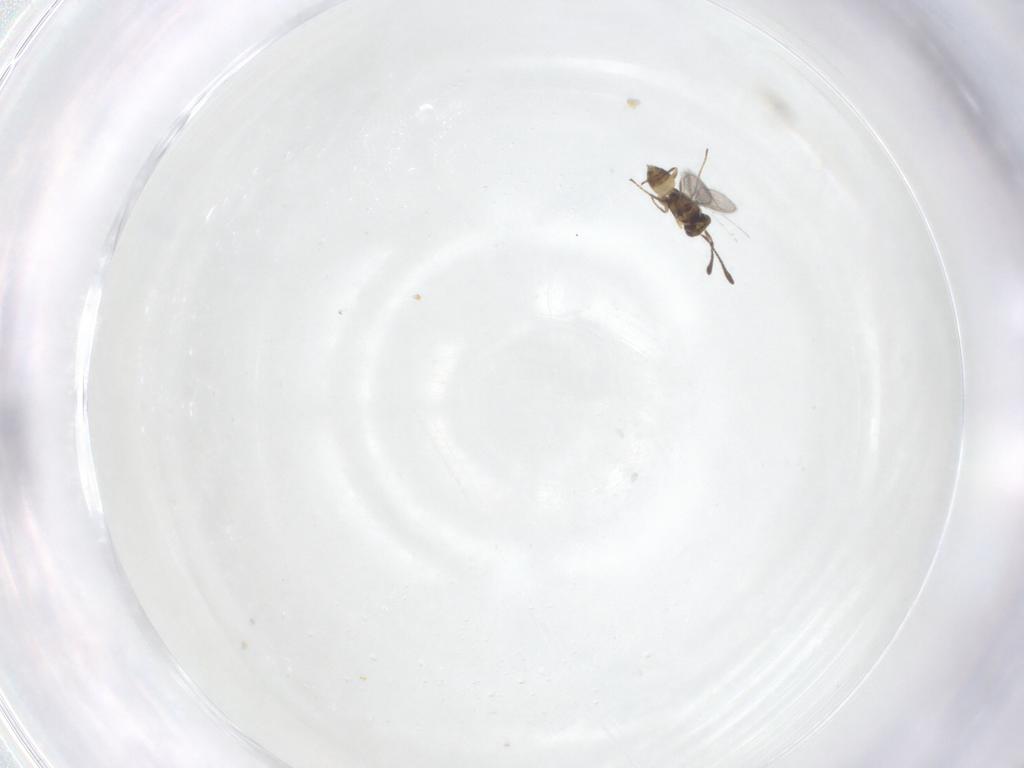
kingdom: Animalia
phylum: Arthropoda
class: Insecta
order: Hymenoptera
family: Mymaridae
